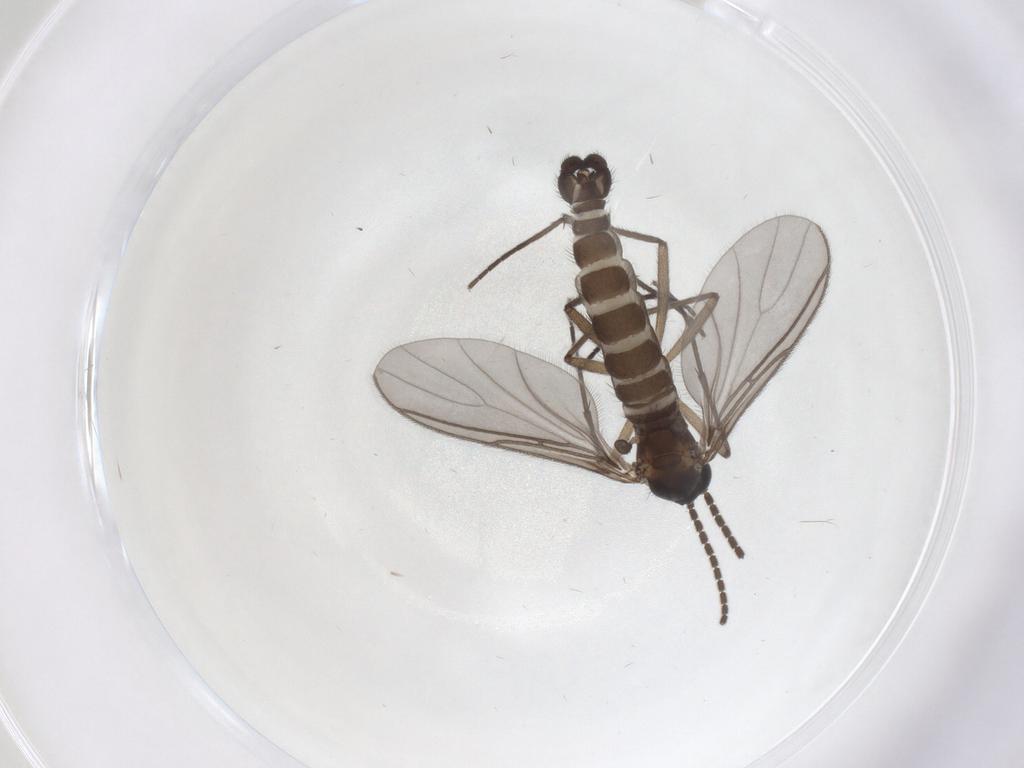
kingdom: Animalia
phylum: Arthropoda
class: Insecta
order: Diptera
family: Sciaridae
